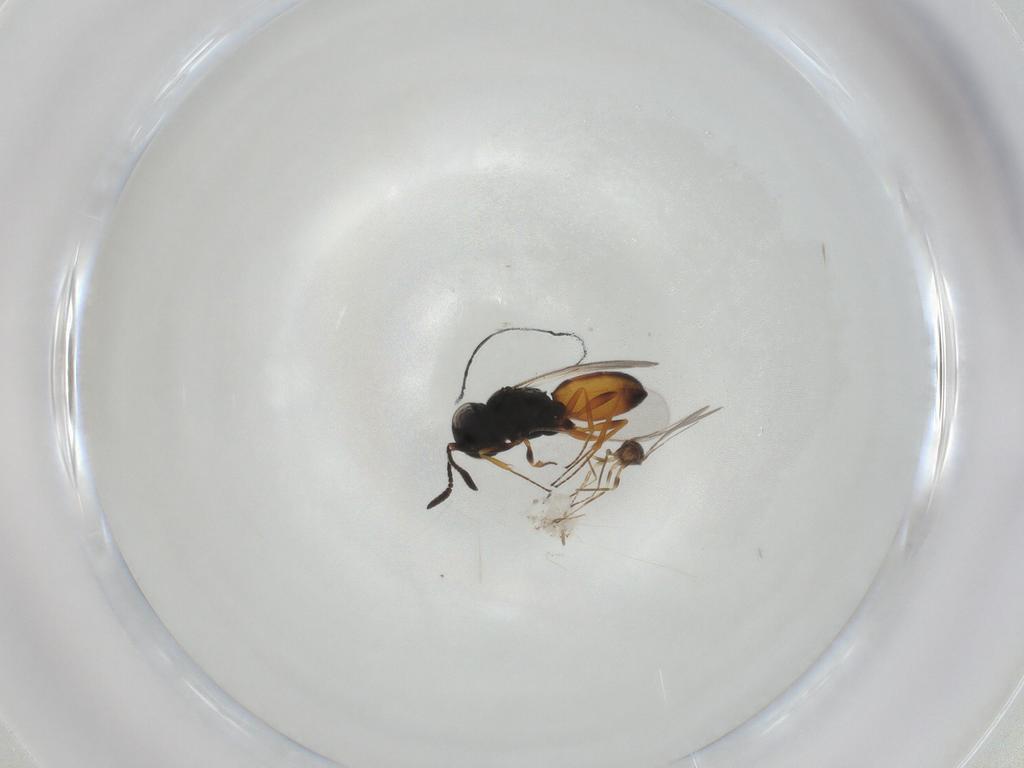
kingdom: Animalia
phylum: Arthropoda
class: Insecta
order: Hymenoptera
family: Mymaridae
